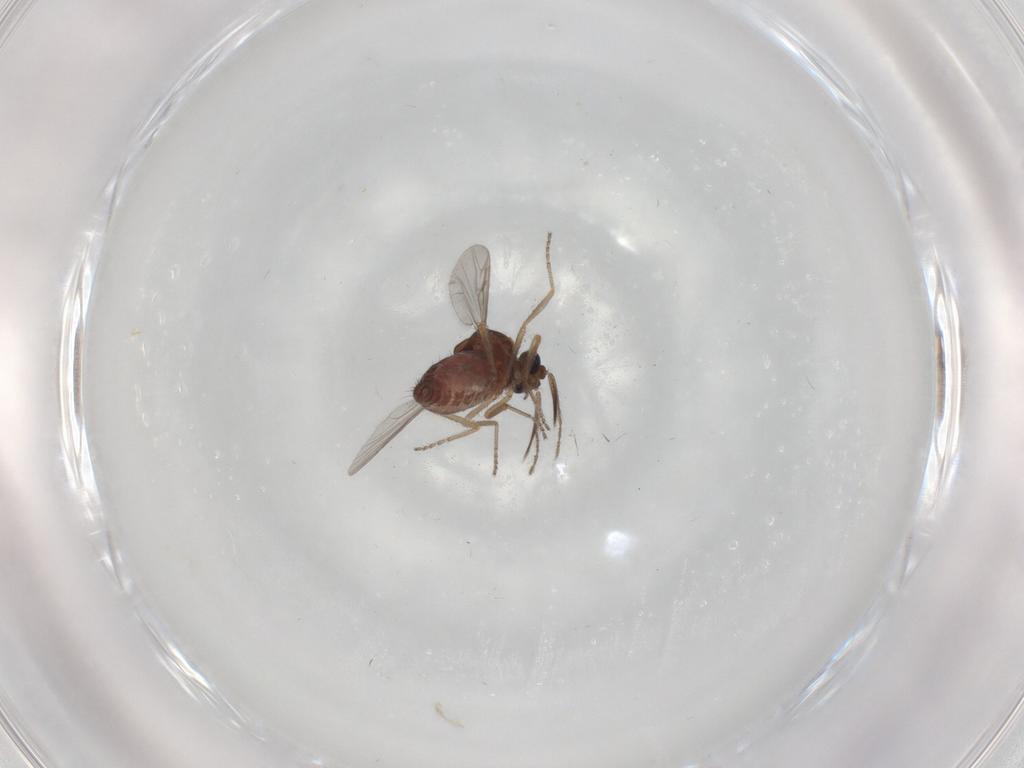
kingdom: Animalia
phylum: Arthropoda
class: Insecta
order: Diptera
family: Ceratopogonidae
